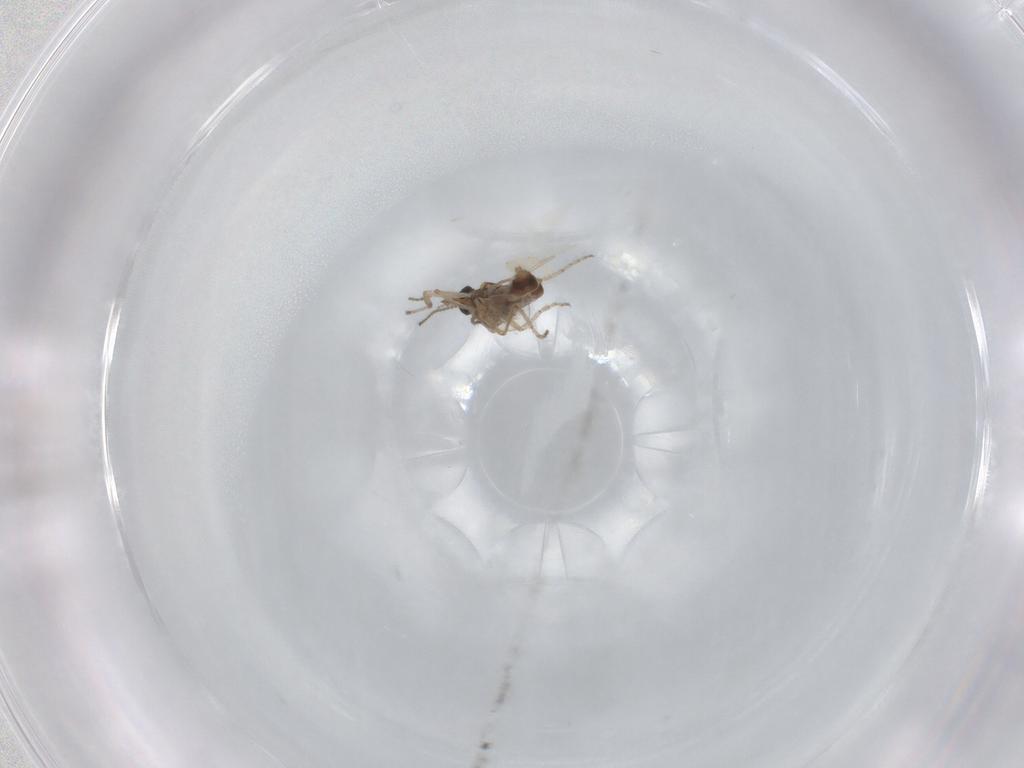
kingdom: Animalia
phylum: Arthropoda
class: Insecta
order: Diptera
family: Ceratopogonidae
